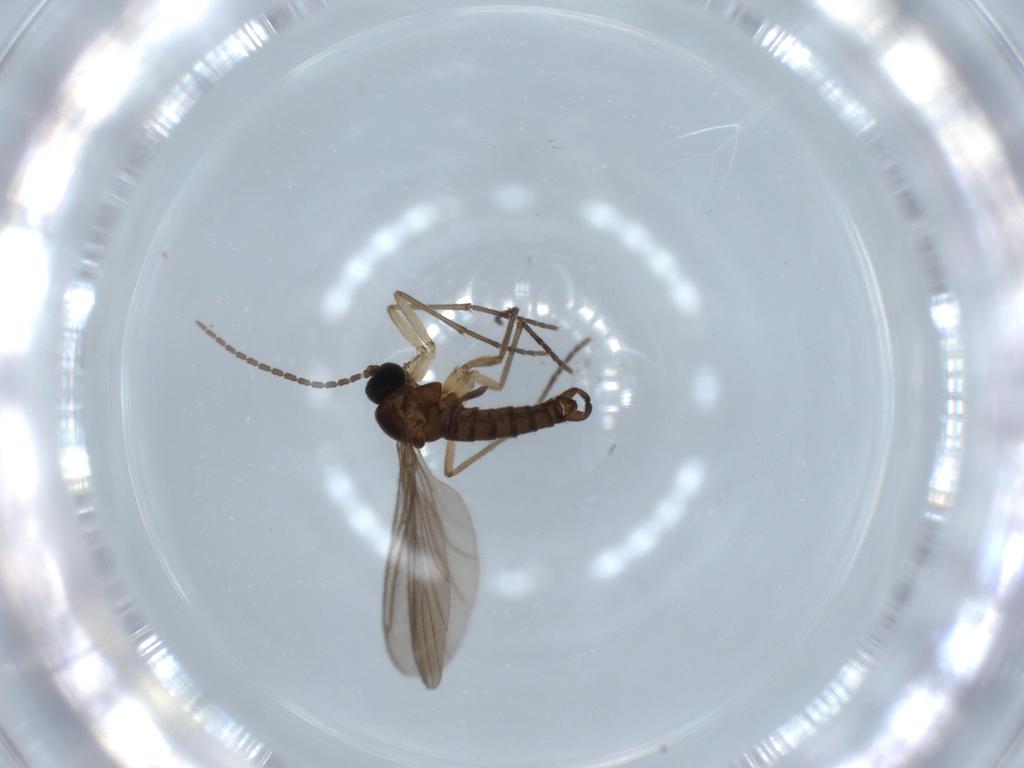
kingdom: Animalia
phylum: Arthropoda
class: Insecta
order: Diptera
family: Sciaridae
